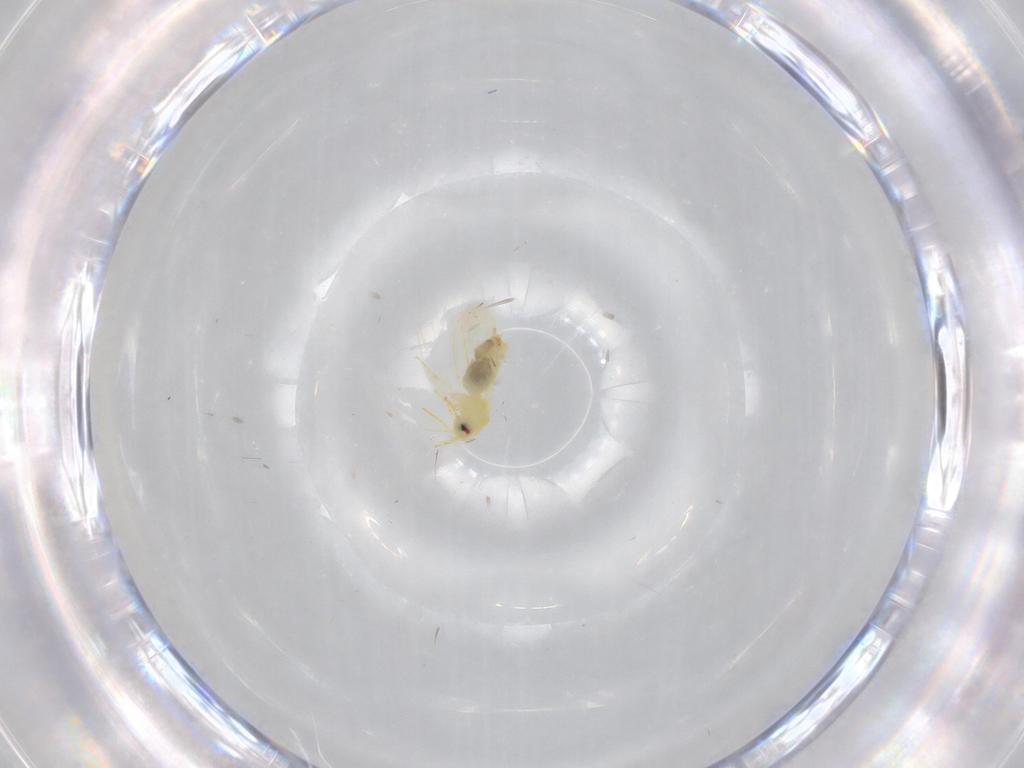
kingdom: Animalia
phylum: Arthropoda
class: Insecta
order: Hemiptera
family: Aleyrodidae
